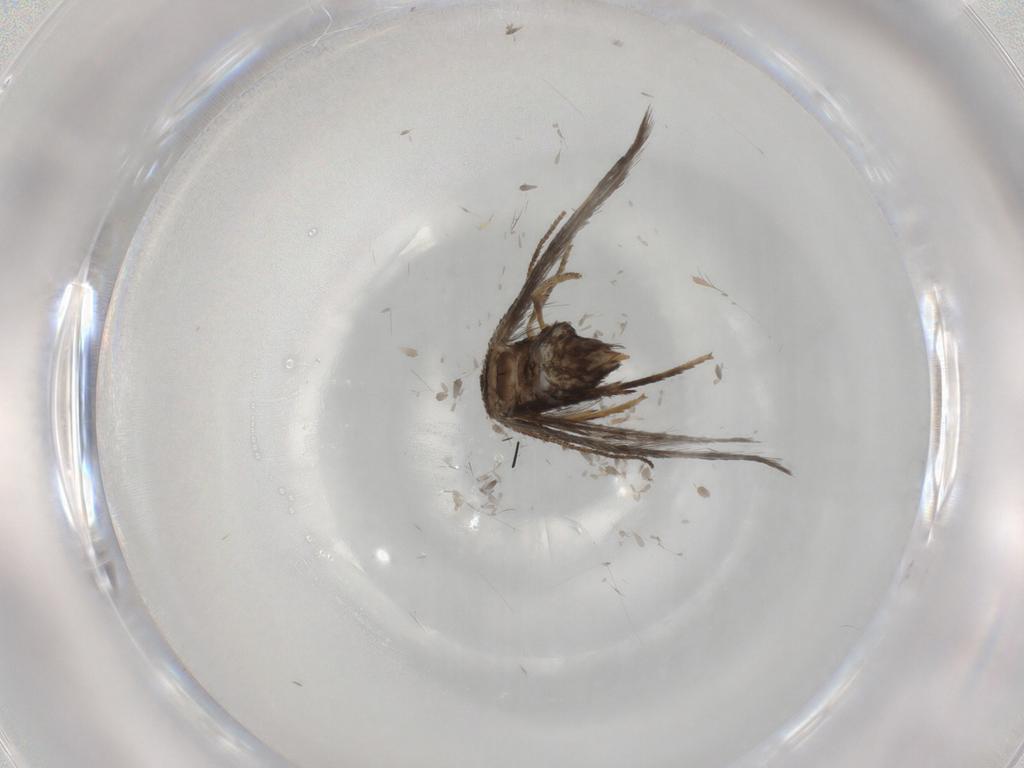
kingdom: Animalia
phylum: Arthropoda
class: Insecta
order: Lepidoptera
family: Nepticulidae
